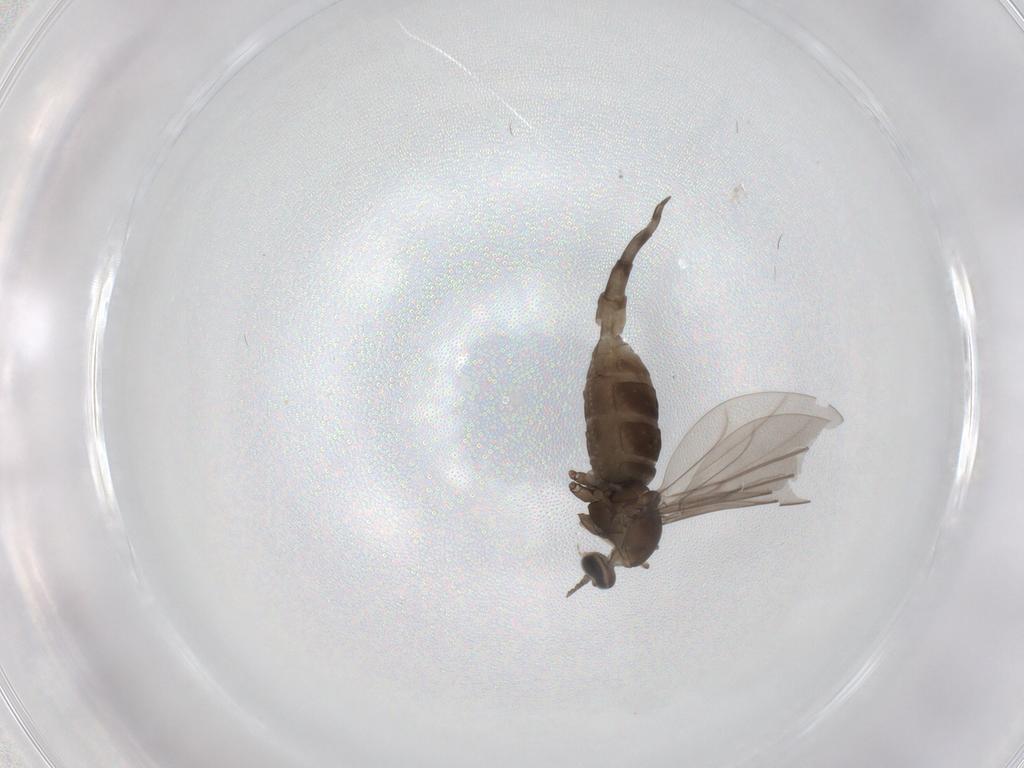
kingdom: Animalia
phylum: Arthropoda
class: Insecta
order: Diptera
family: Cecidomyiidae
